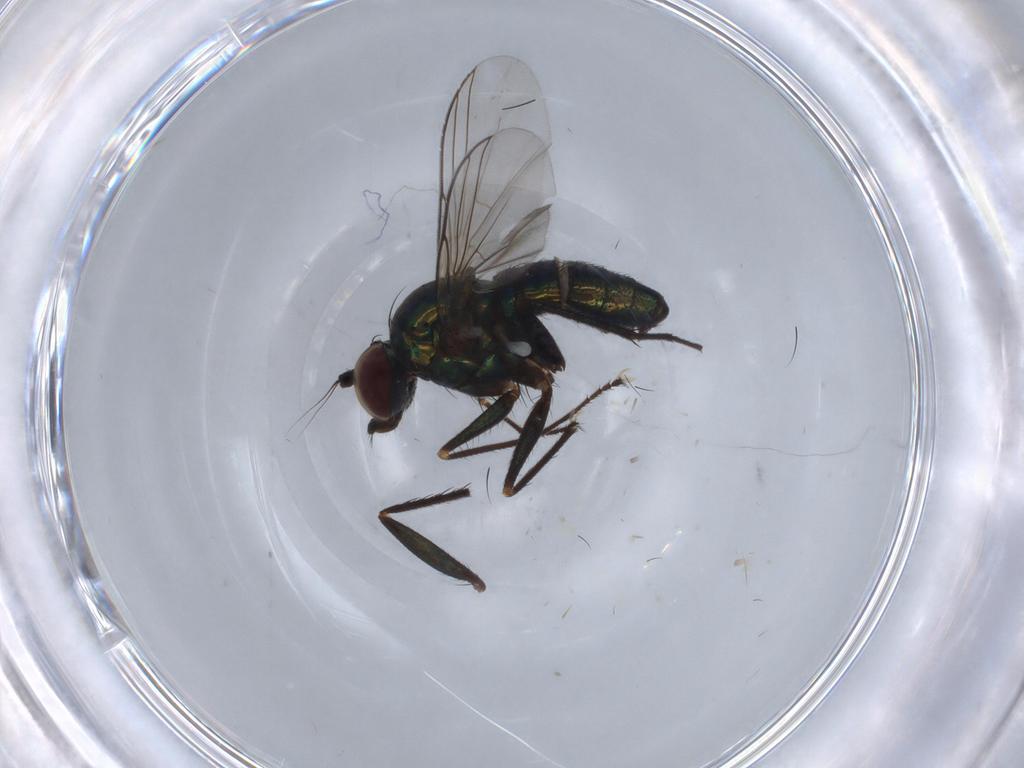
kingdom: Animalia
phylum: Arthropoda
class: Insecta
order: Diptera
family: Dolichopodidae
